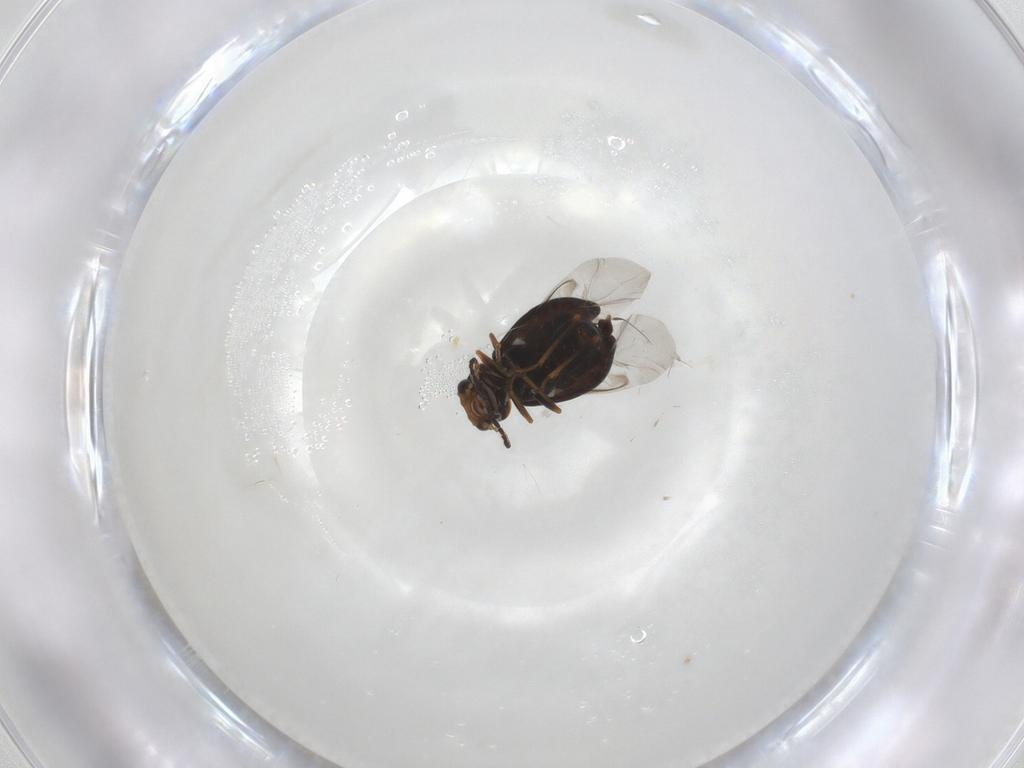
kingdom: Animalia
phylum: Arthropoda
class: Insecta
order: Coleoptera
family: Melyridae
